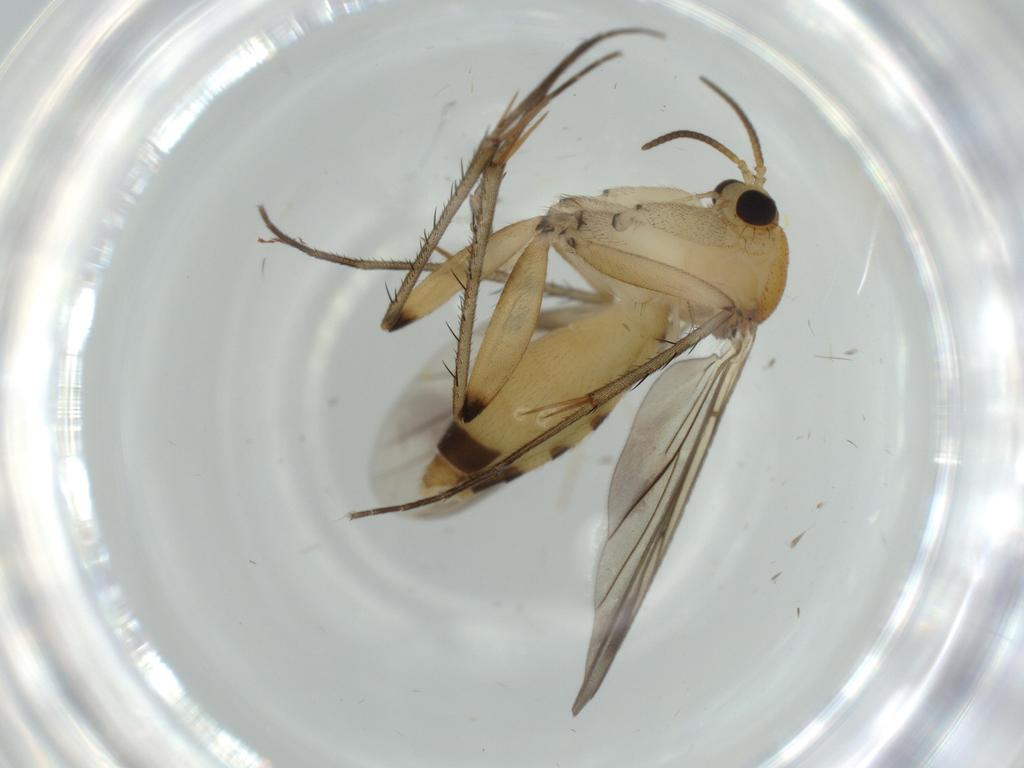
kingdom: Animalia
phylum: Arthropoda
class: Insecta
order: Diptera
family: Mycetophilidae
